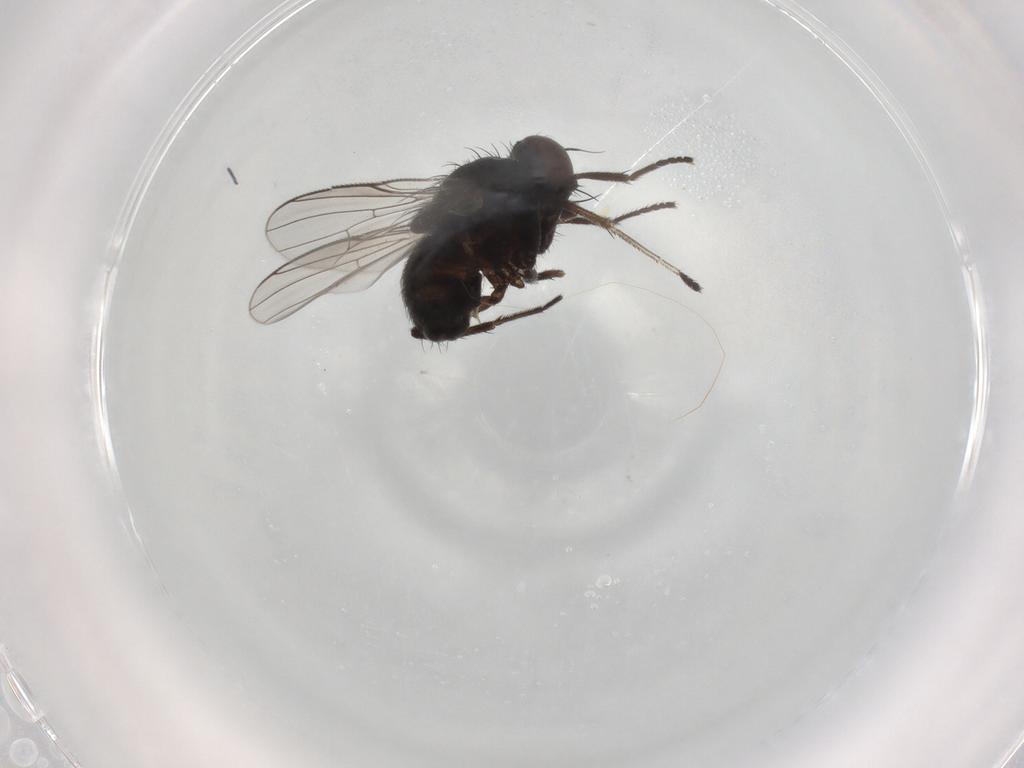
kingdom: Animalia
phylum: Arthropoda
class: Insecta
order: Diptera
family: Muscidae
